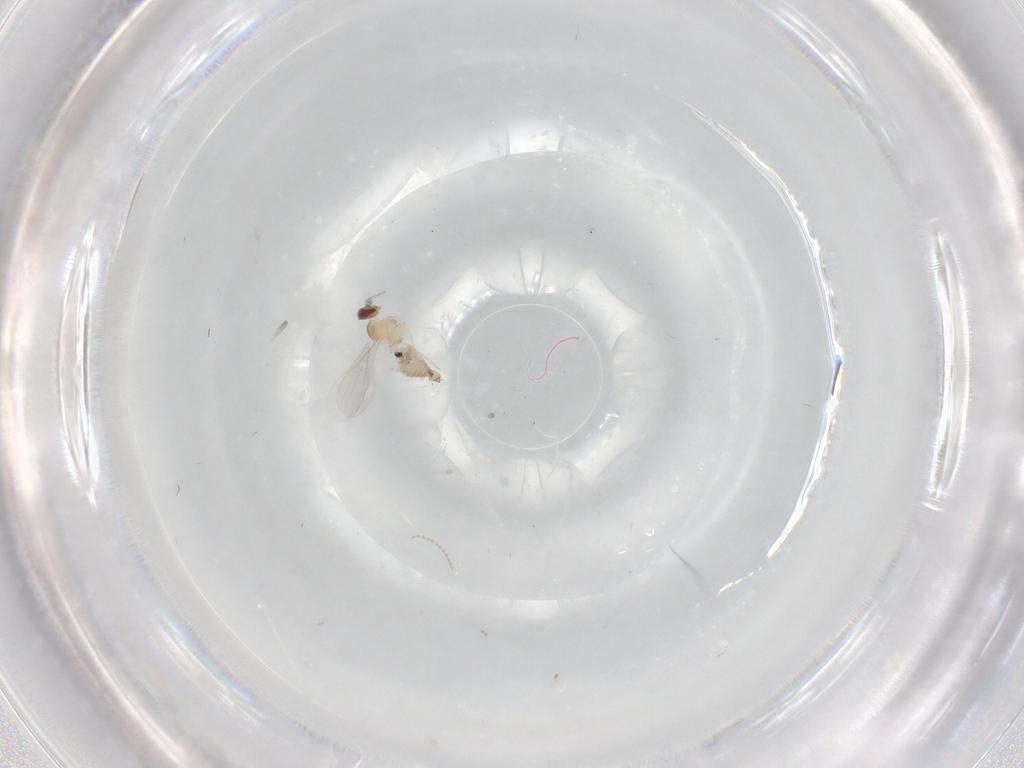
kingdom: Animalia
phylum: Arthropoda
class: Insecta
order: Diptera
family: Cecidomyiidae
